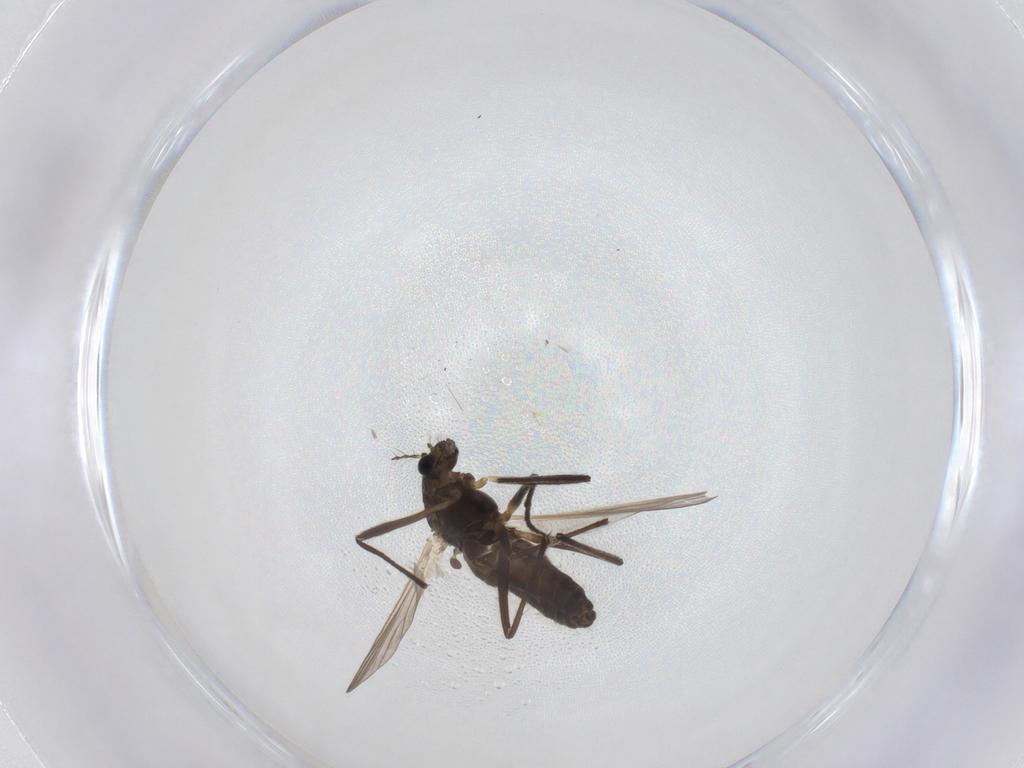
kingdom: Animalia
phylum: Arthropoda
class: Insecta
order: Diptera
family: Chironomidae
